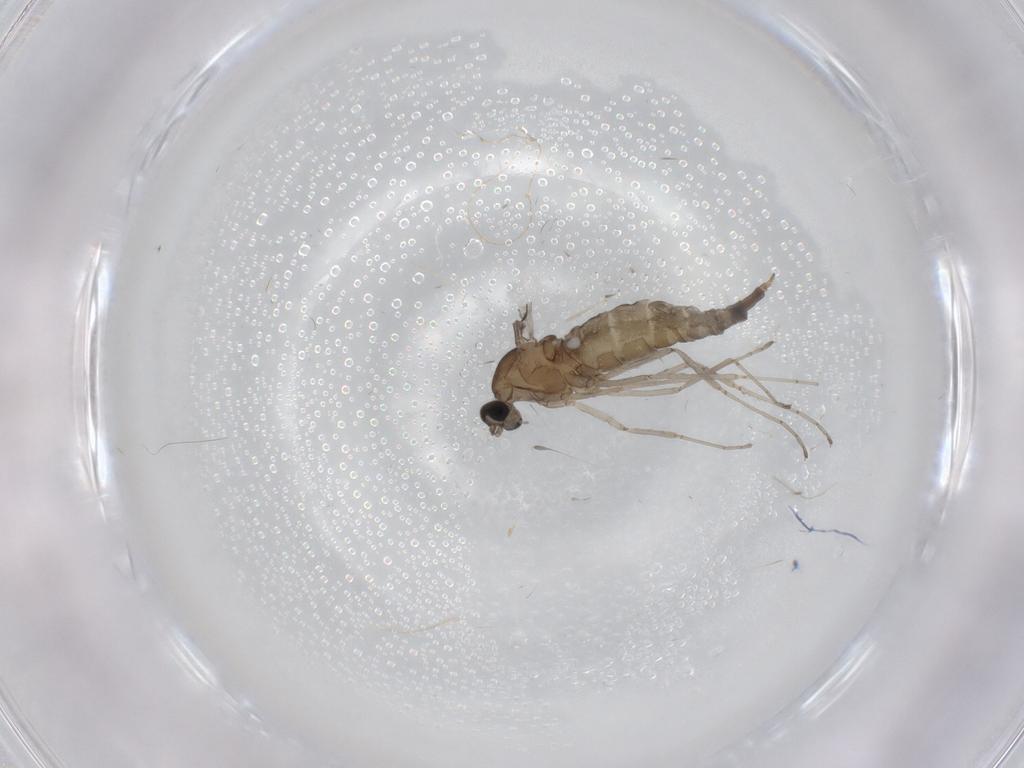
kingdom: Animalia
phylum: Arthropoda
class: Insecta
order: Diptera
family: Cecidomyiidae
